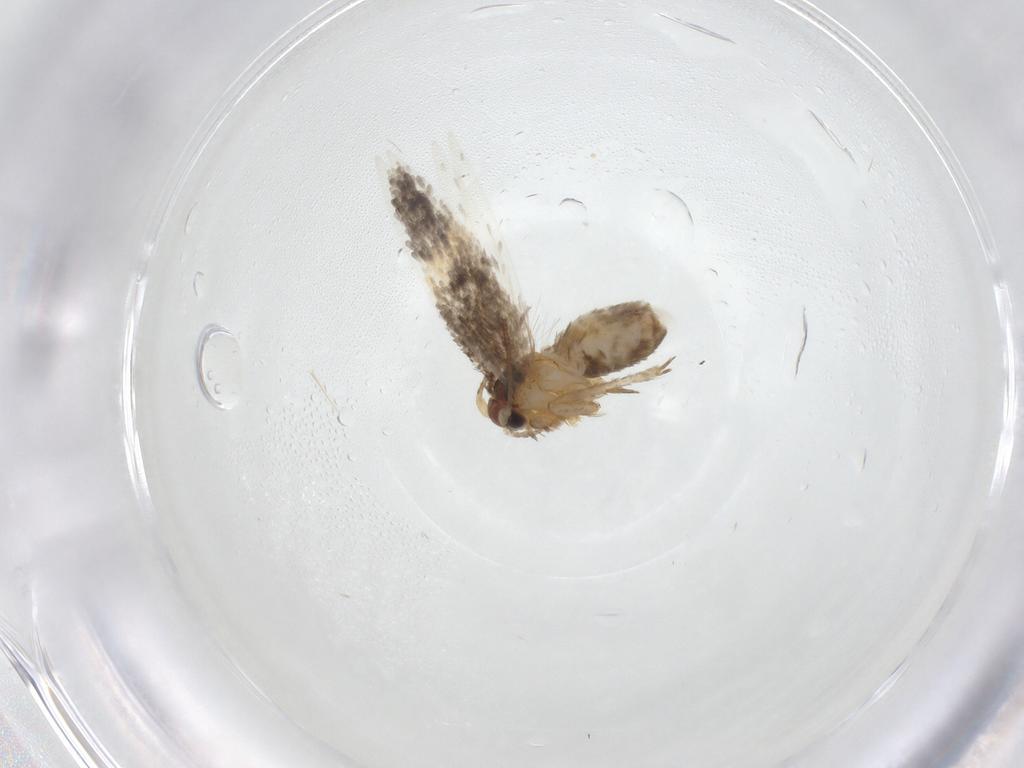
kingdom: Animalia
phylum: Arthropoda
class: Insecta
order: Lepidoptera
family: Nepticulidae
